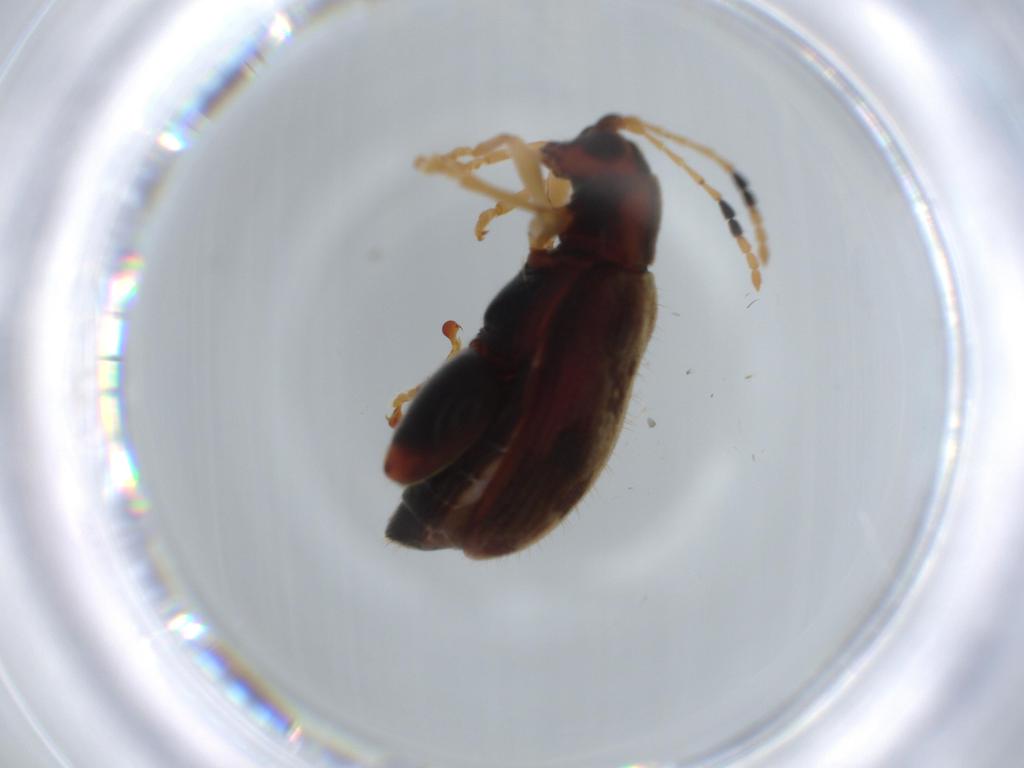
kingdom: Animalia
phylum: Arthropoda
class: Insecta
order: Coleoptera
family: Chrysomelidae
